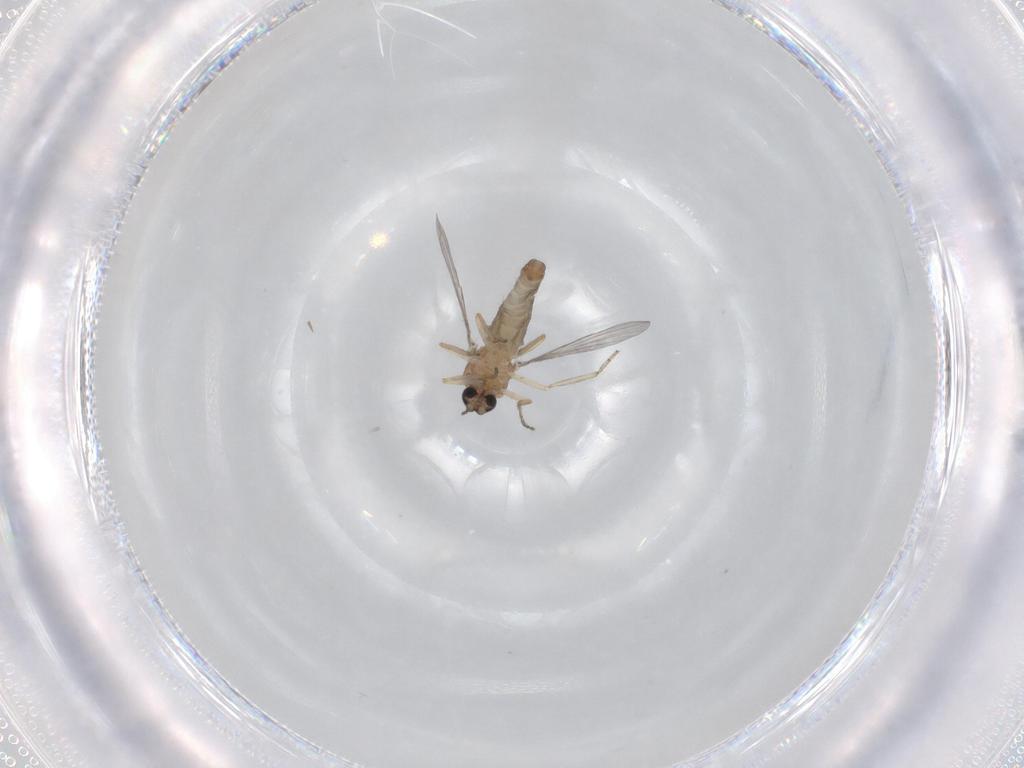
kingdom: Animalia
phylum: Arthropoda
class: Insecta
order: Diptera
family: Ceratopogonidae
